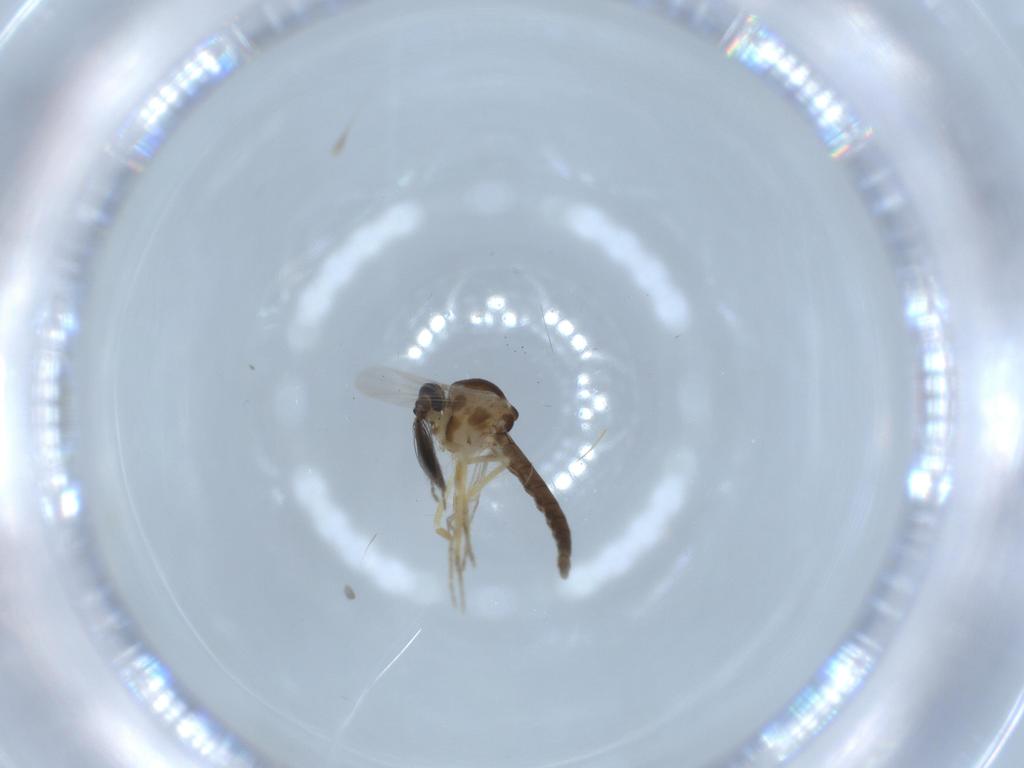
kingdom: Animalia
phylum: Arthropoda
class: Insecta
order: Diptera
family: Ceratopogonidae
